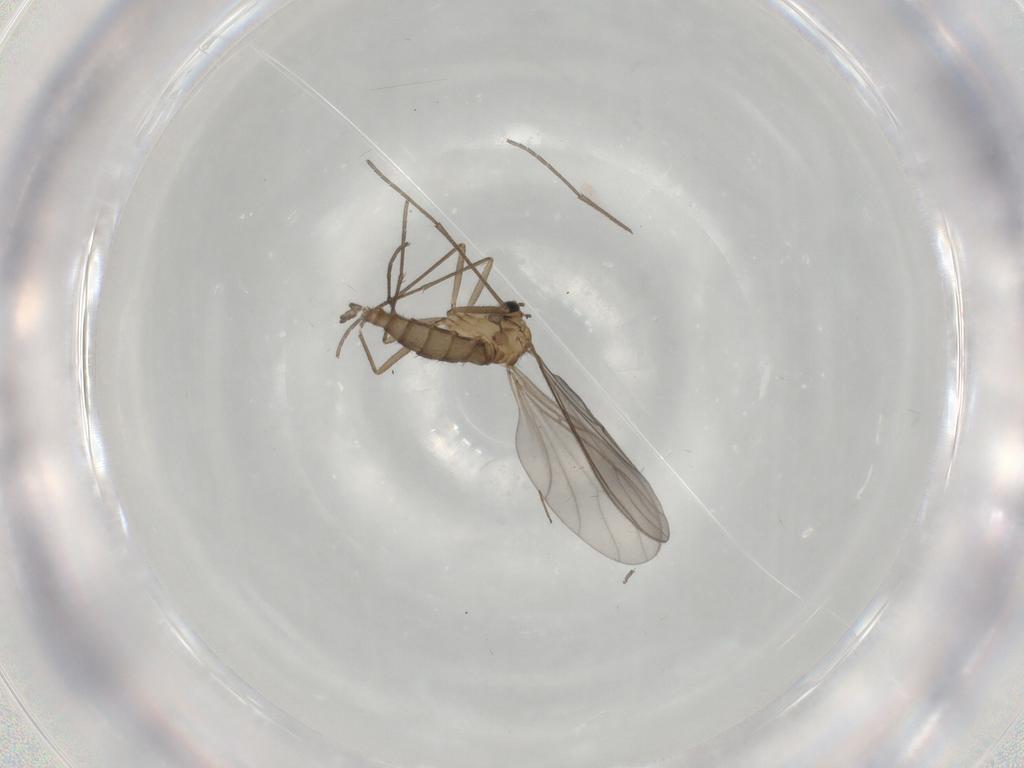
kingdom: Animalia
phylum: Arthropoda
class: Insecta
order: Diptera
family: Sciaridae
